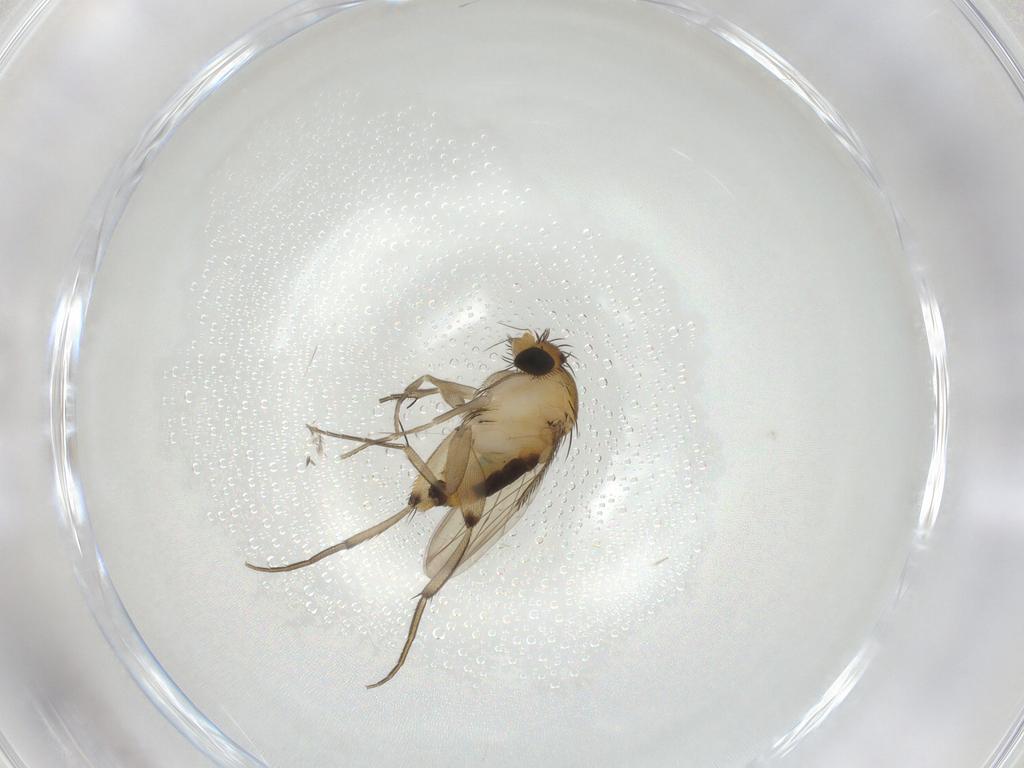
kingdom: Animalia
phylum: Arthropoda
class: Insecta
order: Diptera
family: Phoridae
